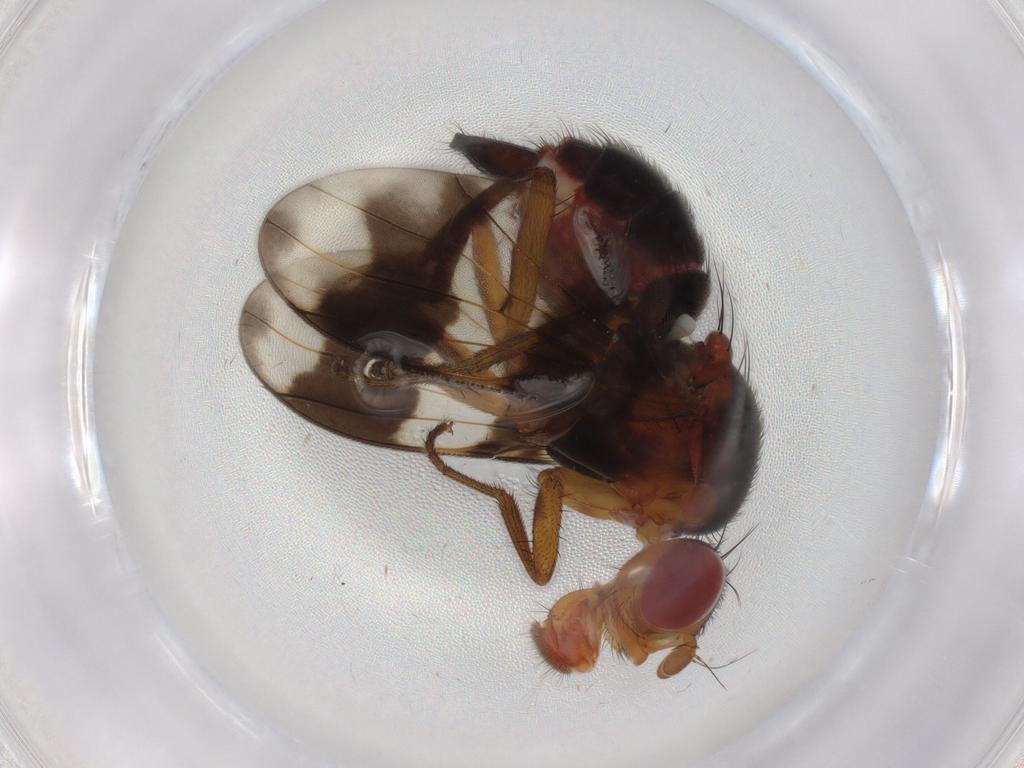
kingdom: Animalia
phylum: Arthropoda
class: Insecta
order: Diptera
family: Richardiidae
